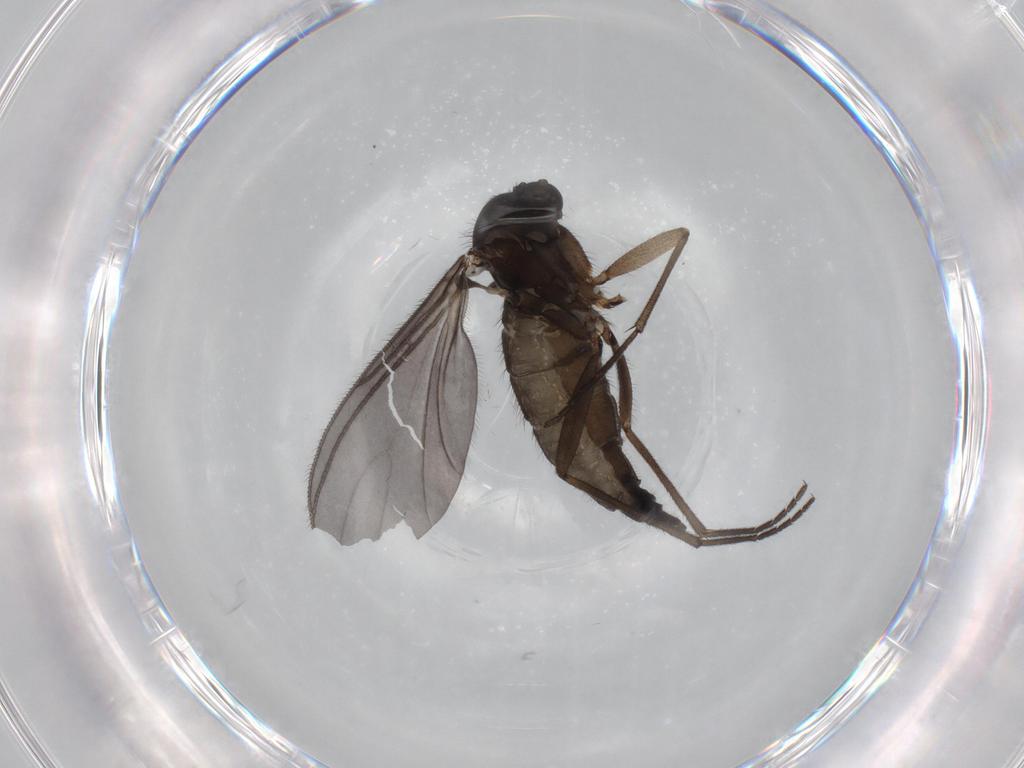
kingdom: Animalia
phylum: Arthropoda
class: Insecta
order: Diptera
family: Sciaridae
